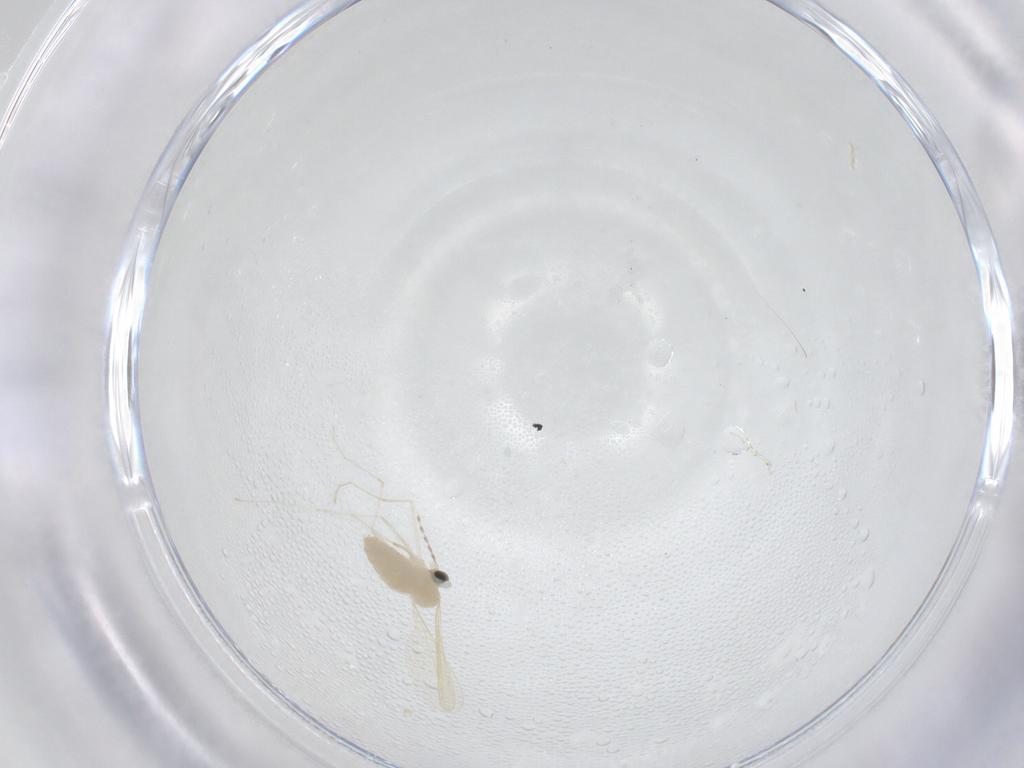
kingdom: Animalia
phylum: Arthropoda
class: Insecta
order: Diptera
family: Cecidomyiidae
